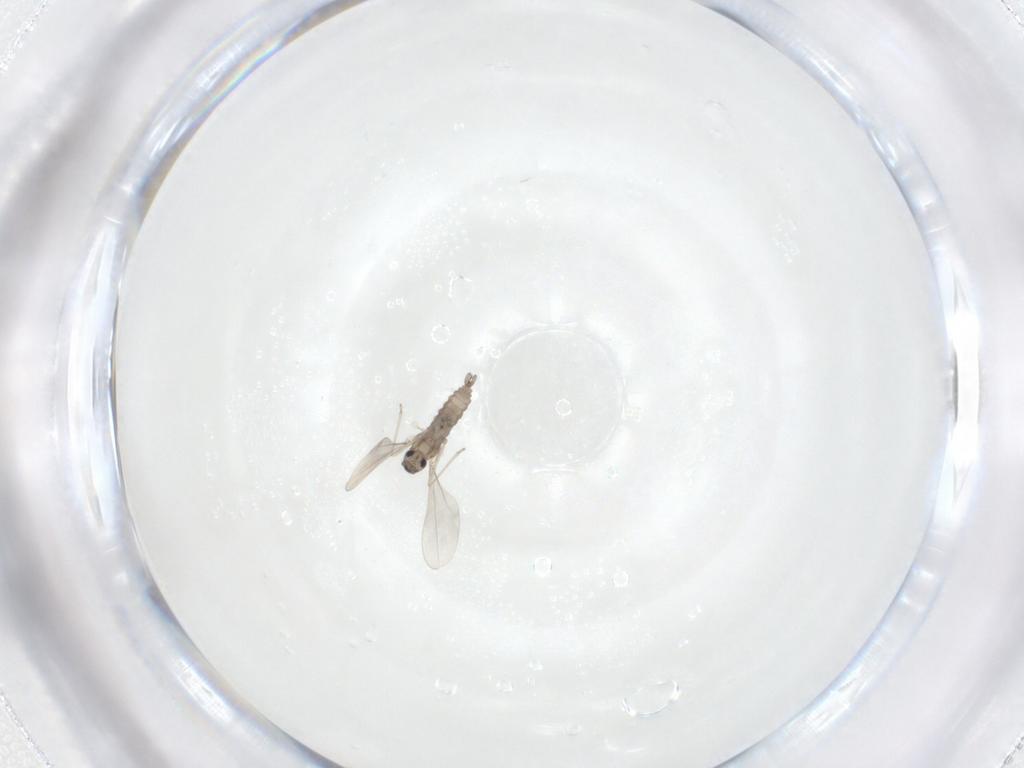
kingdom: Animalia
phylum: Arthropoda
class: Insecta
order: Diptera
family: Cecidomyiidae
